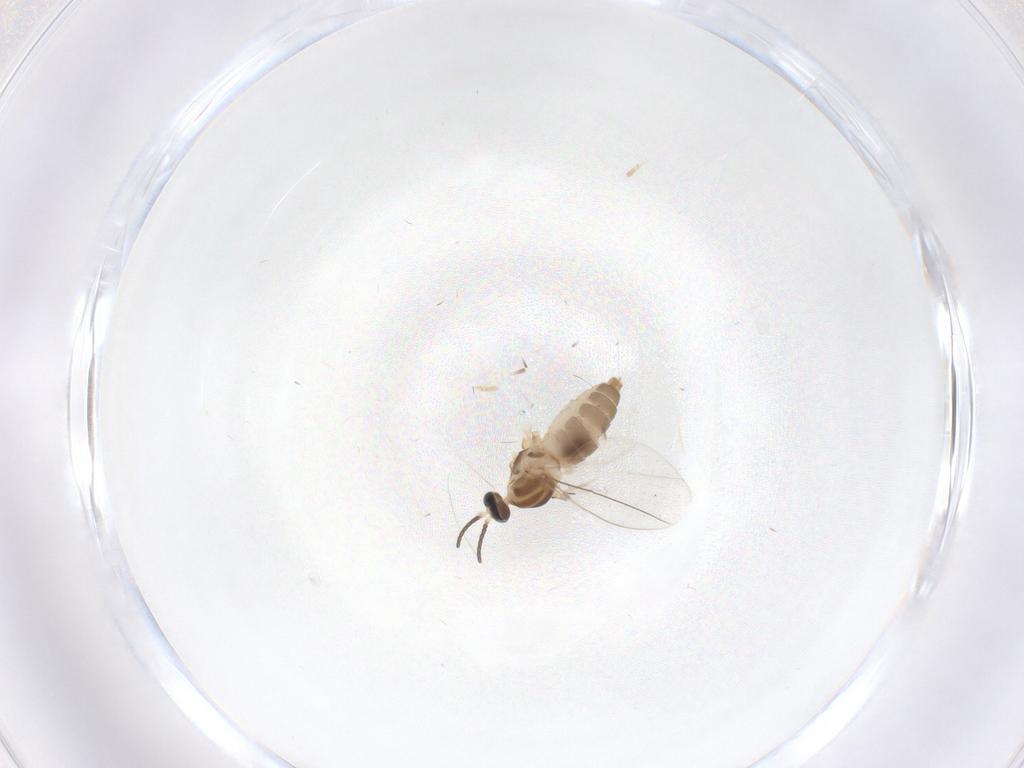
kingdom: Animalia
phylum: Arthropoda
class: Insecta
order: Diptera
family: Cecidomyiidae
